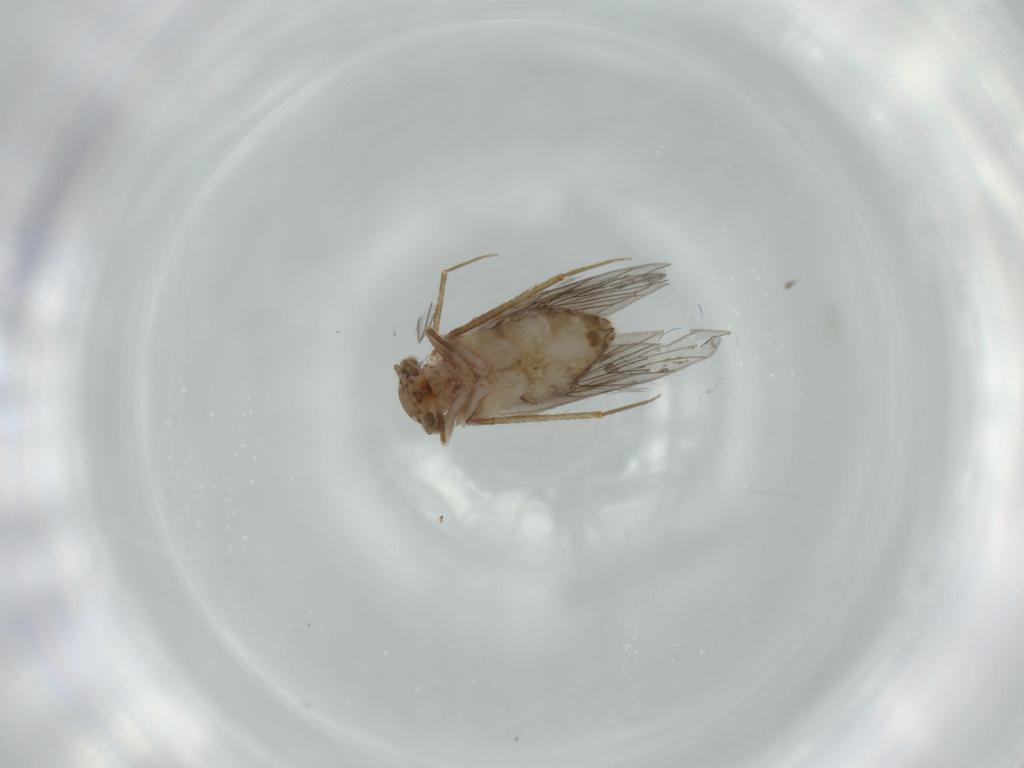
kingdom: Animalia
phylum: Arthropoda
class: Insecta
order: Psocodea
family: Lepidopsocidae
